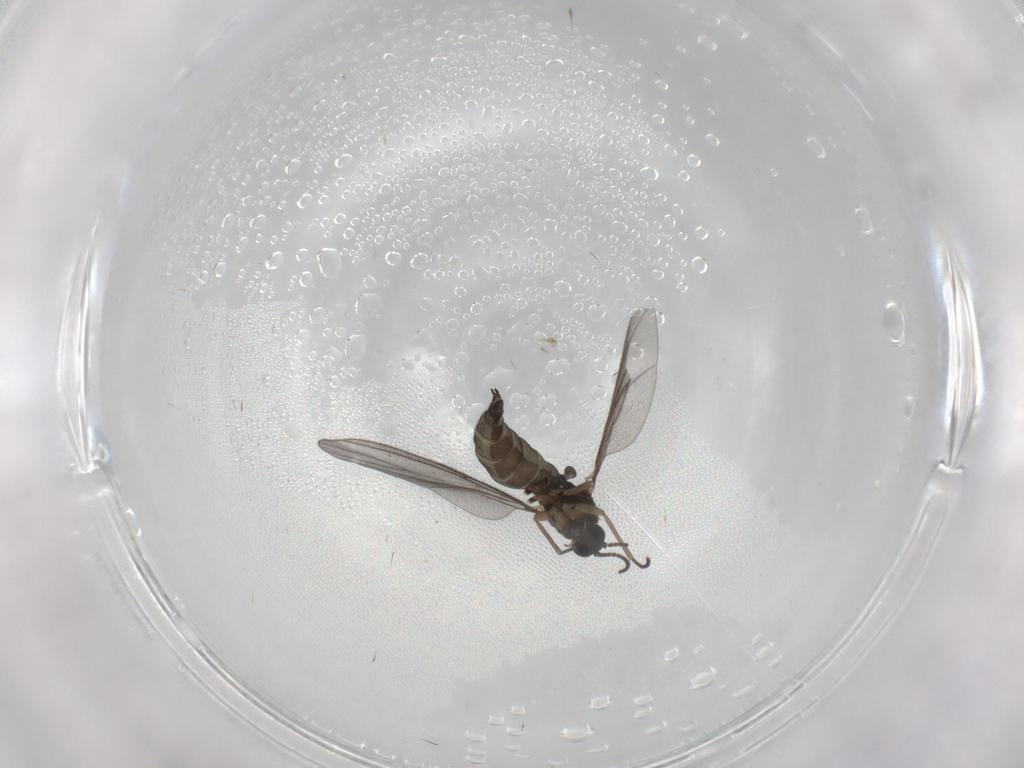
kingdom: Animalia
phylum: Arthropoda
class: Insecta
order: Diptera
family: Sciaridae
